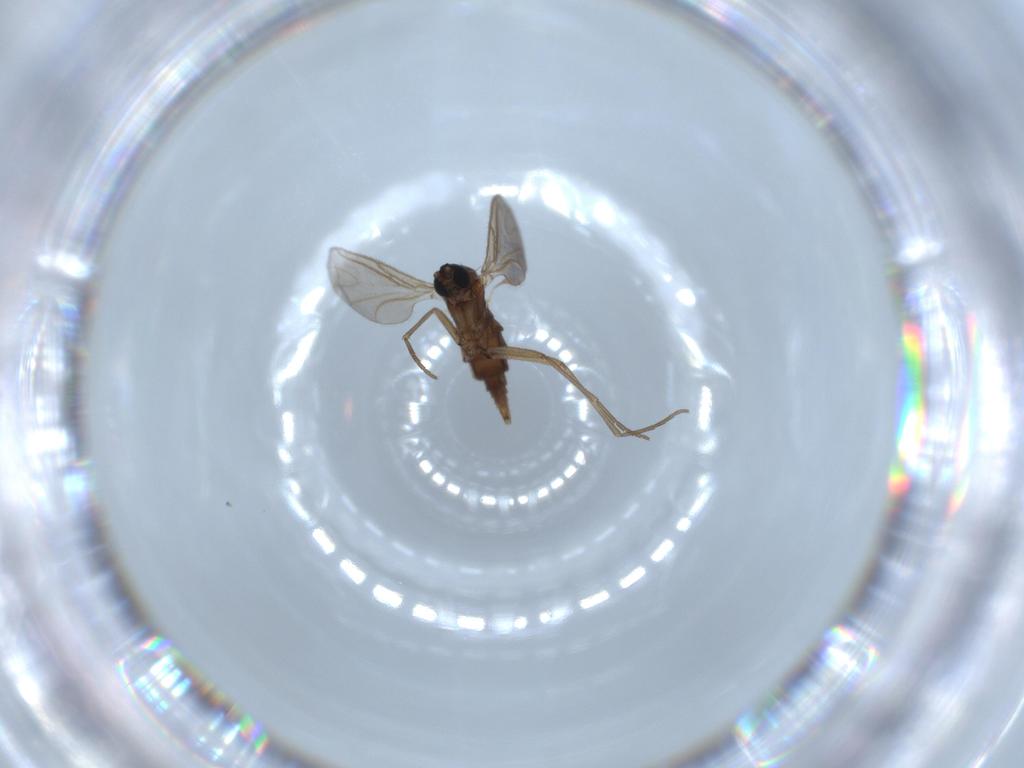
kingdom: Animalia
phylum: Arthropoda
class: Insecta
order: Diptera
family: Sciaridae
